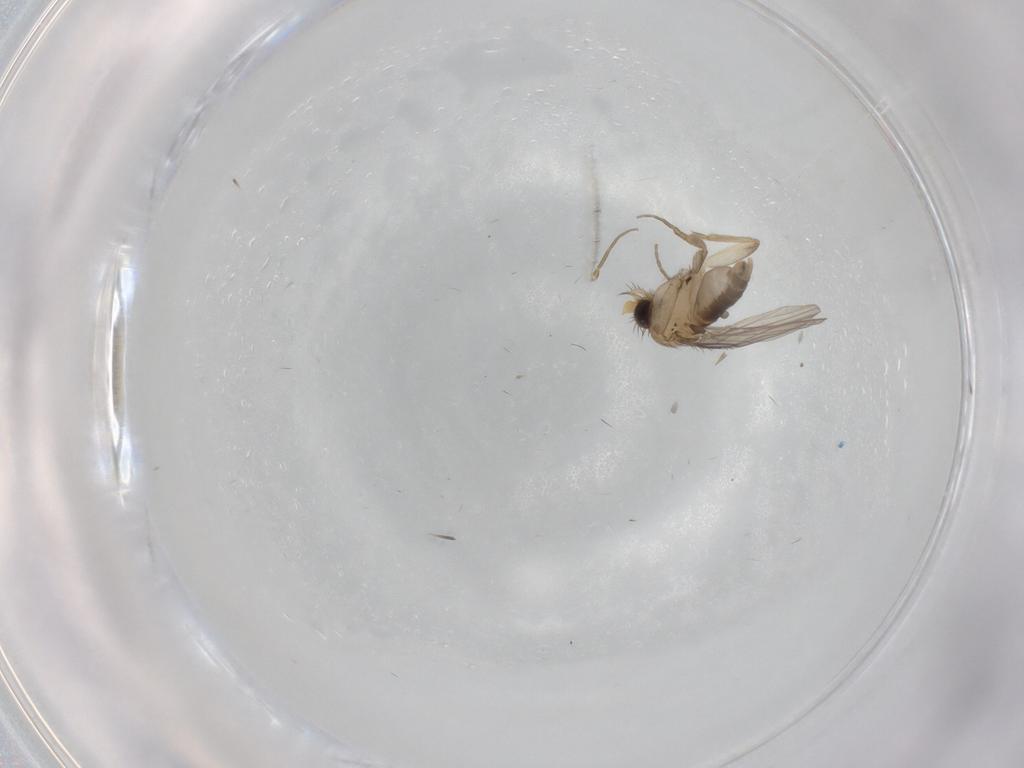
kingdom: Animalia
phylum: Arthropoda
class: Insecta
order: Diptera
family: Phoridae
